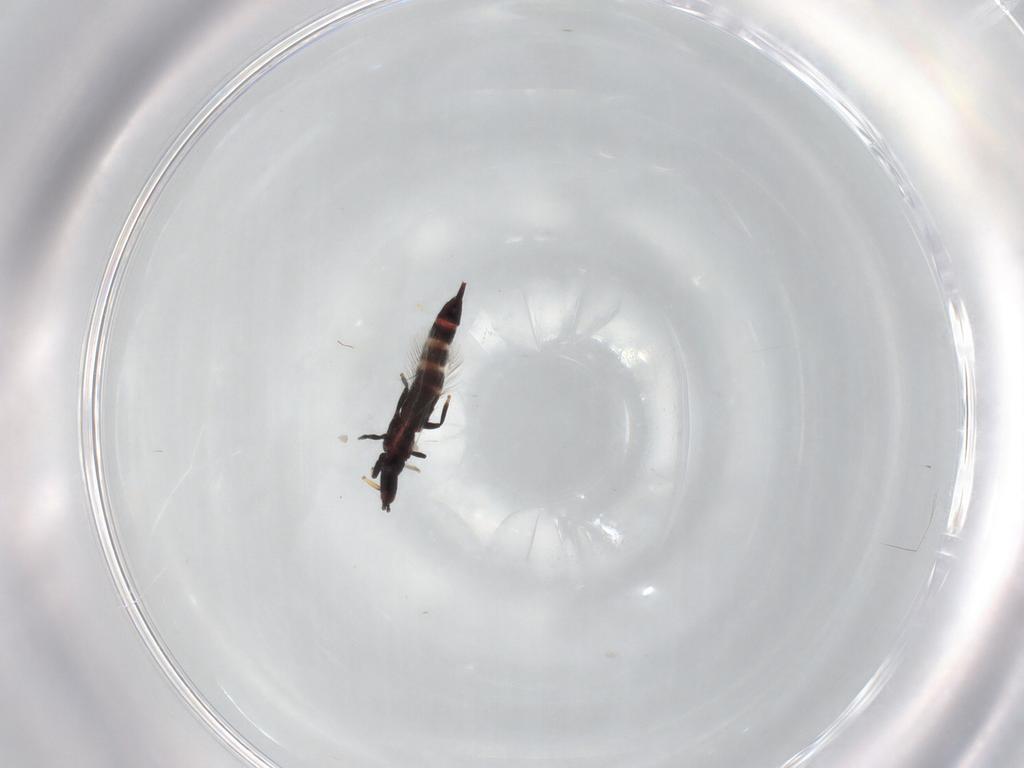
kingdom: Animalia
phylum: Arthropoda
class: Insecta
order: Thysanoptera
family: Phlaeothripidae
